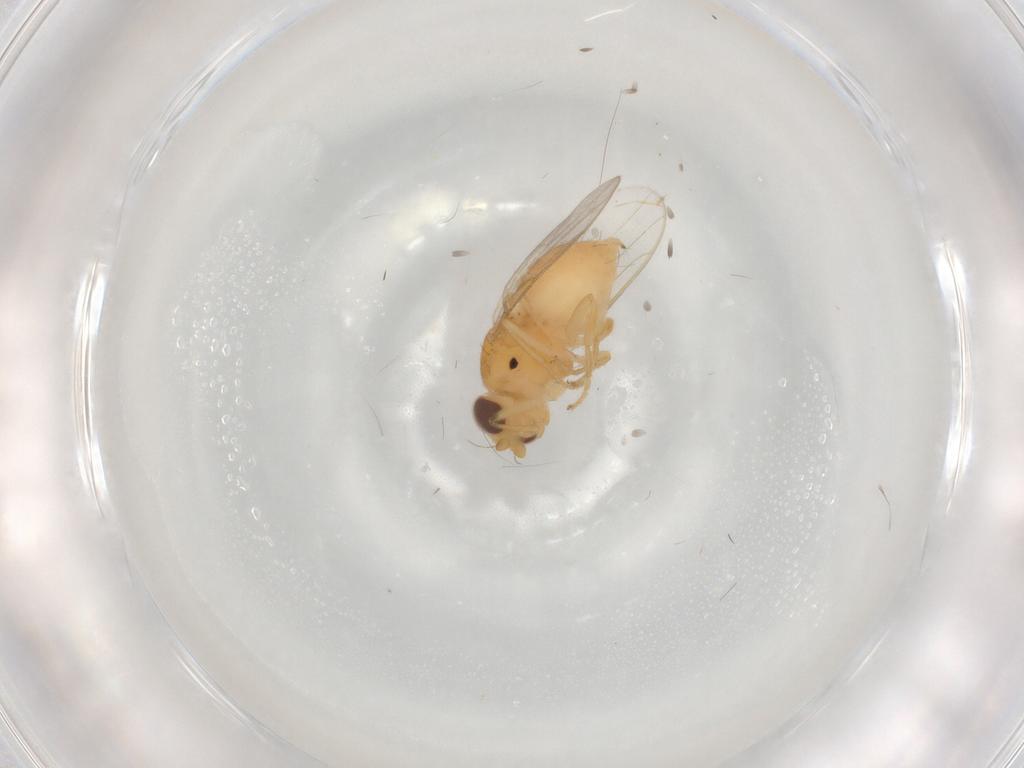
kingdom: Animalia
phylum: Arthropoda
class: Insecta
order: Diptera
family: Chloropidae
